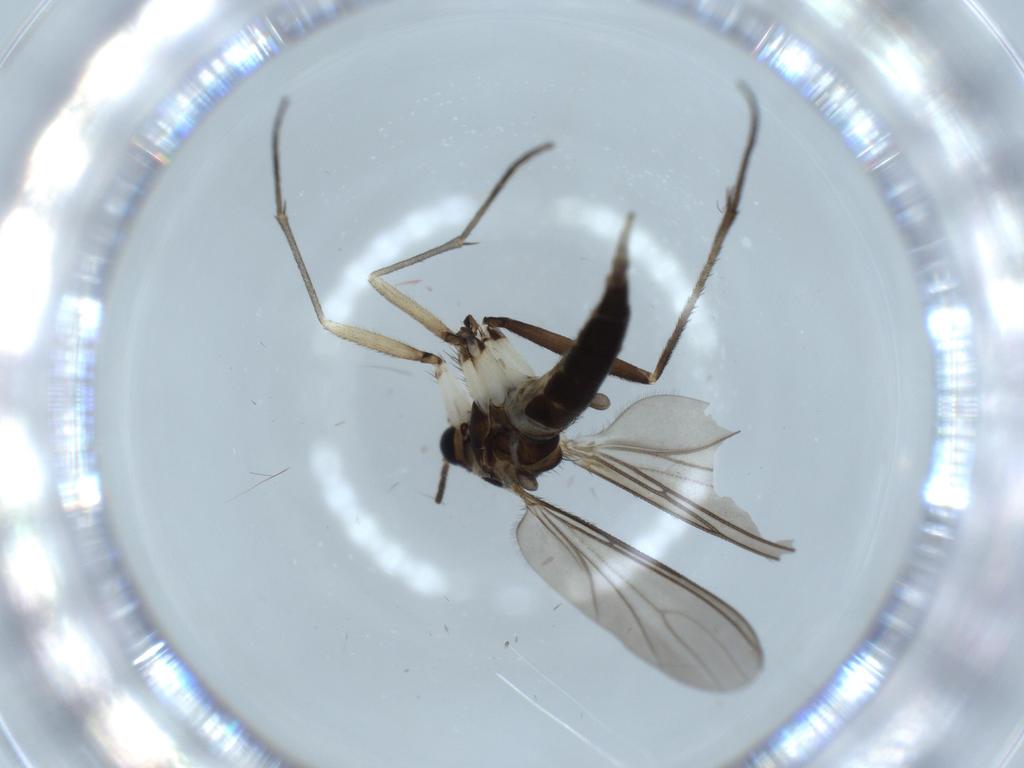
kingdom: Animalia
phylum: Arthropoda
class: Insecta
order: Diptera
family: Sciaridae
